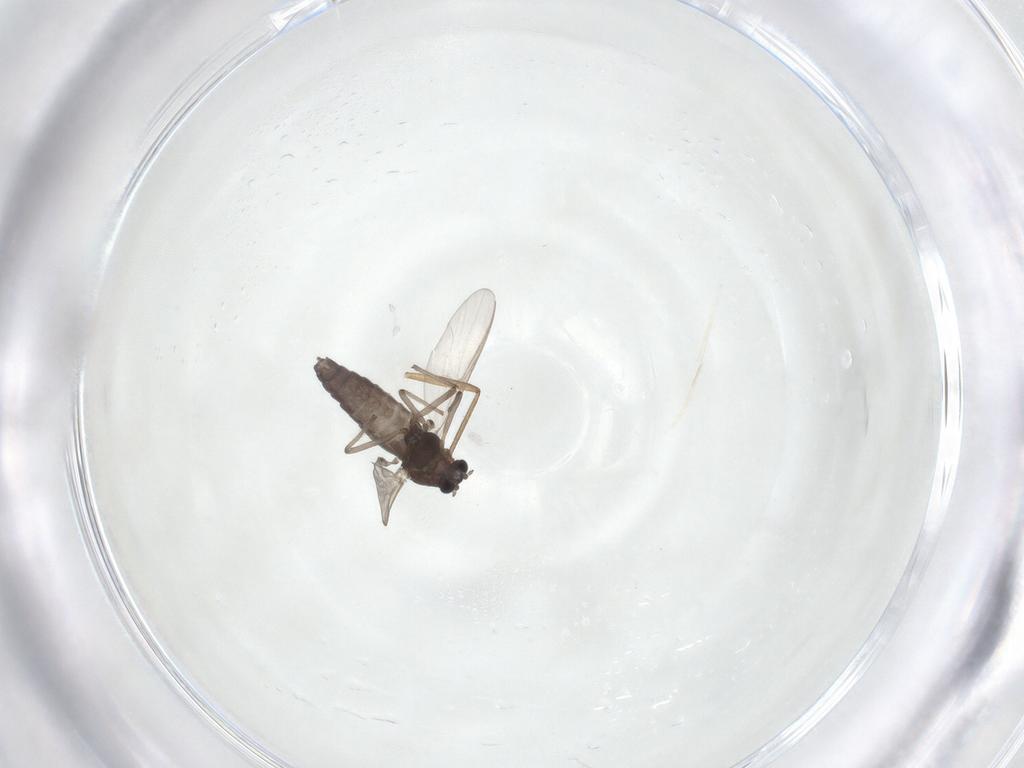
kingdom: Animalia
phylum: Arthropoda
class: Insecta
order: Diptera
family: Chironomidae
